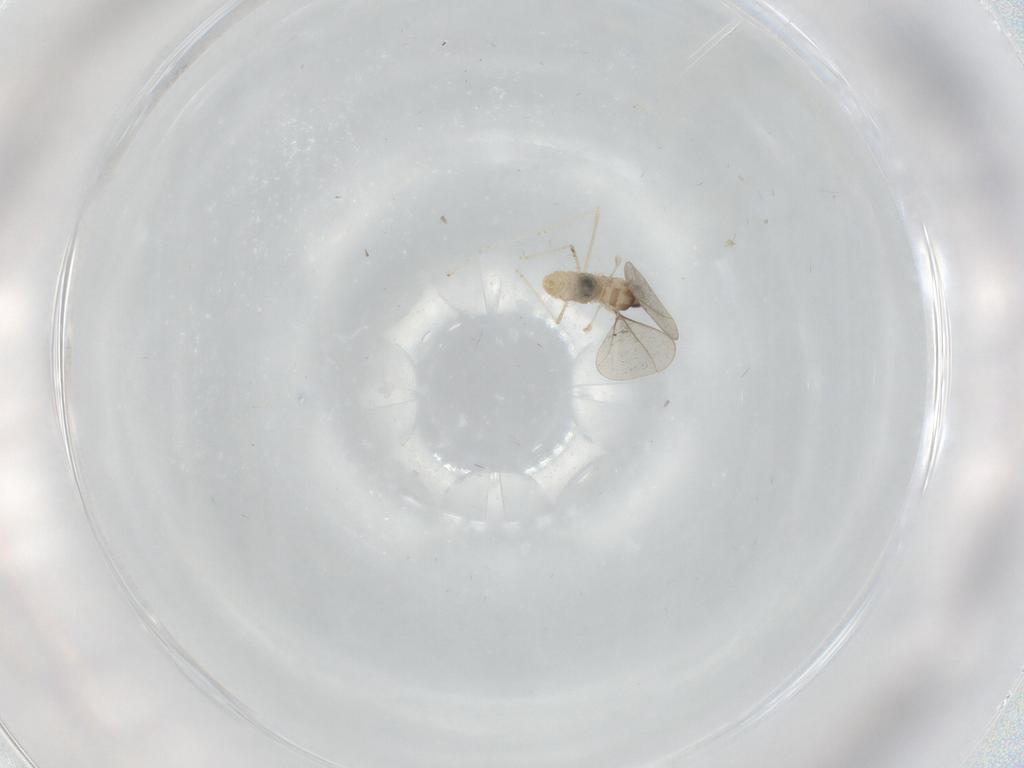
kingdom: Animalia
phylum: Arthropoda
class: Insecta
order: Diptera
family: Cecidomyiidae
